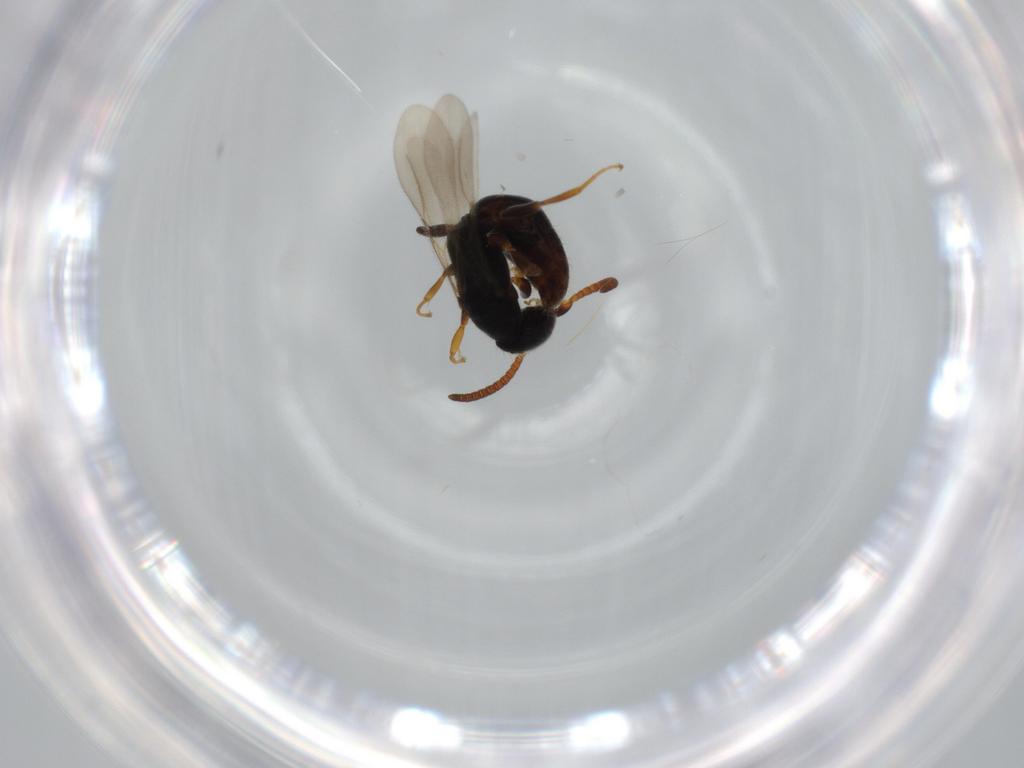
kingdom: Animalia
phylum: Arthropoda
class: Insecta
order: Hymenoptera
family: Bethylidae
